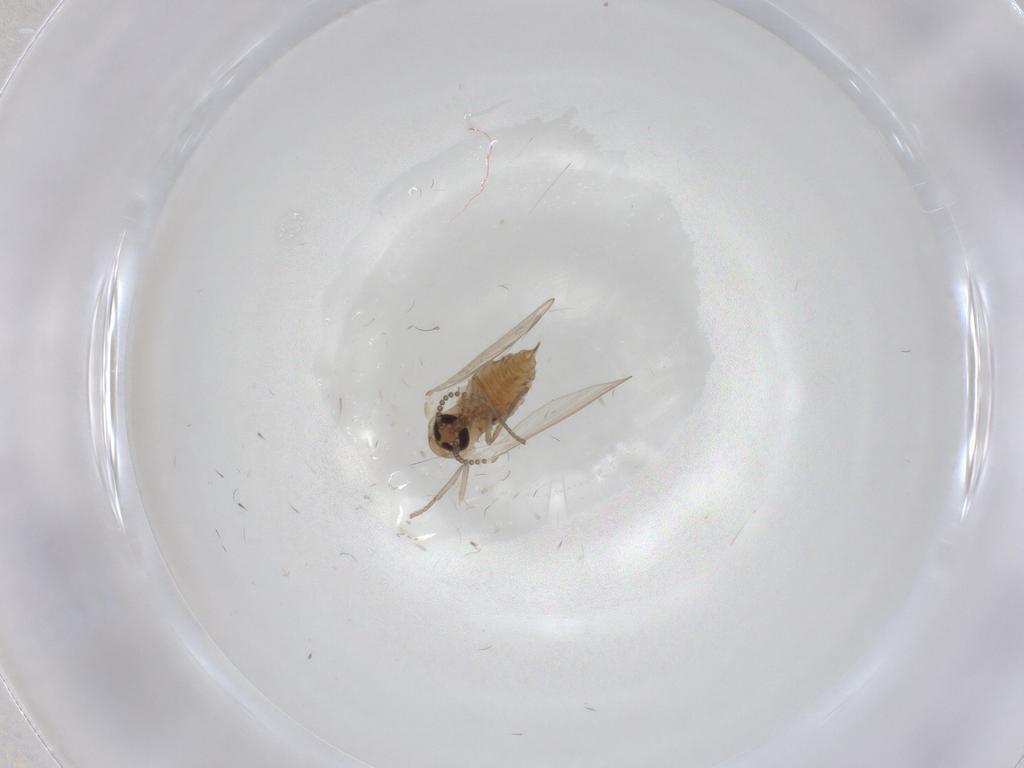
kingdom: Animalia
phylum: Arthropoda
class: Insecta
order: Diptera
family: Psychodidae
